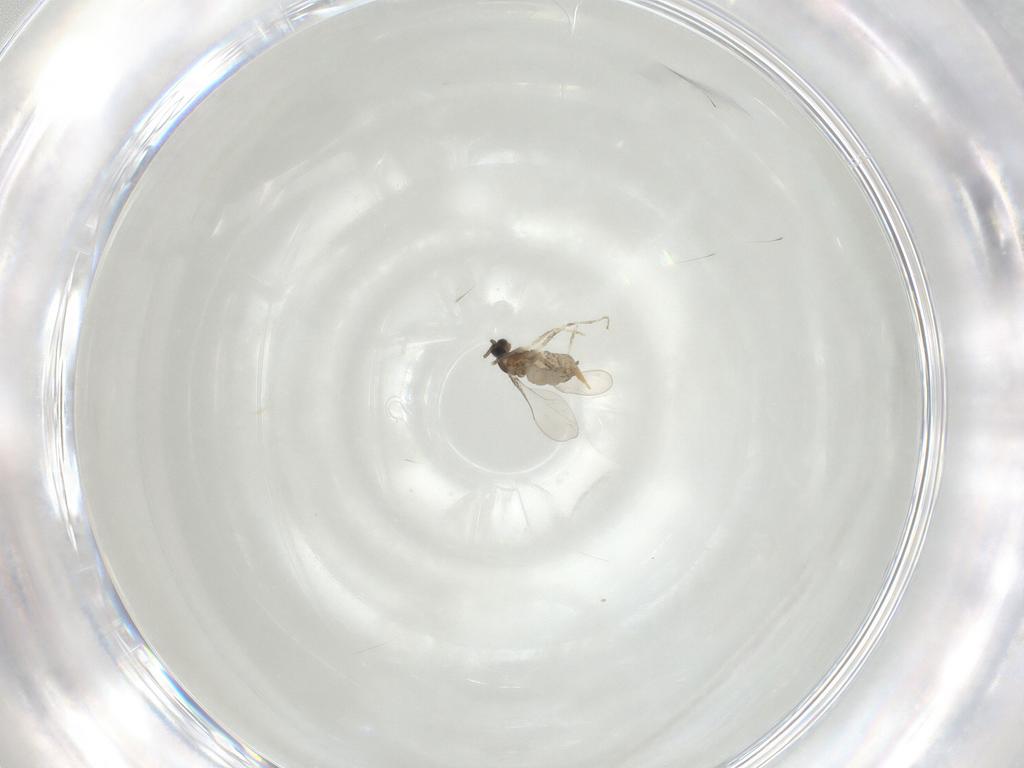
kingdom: Animalia
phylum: Arthropoda
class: Insecta
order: Diptera
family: Cecidomyiidae
